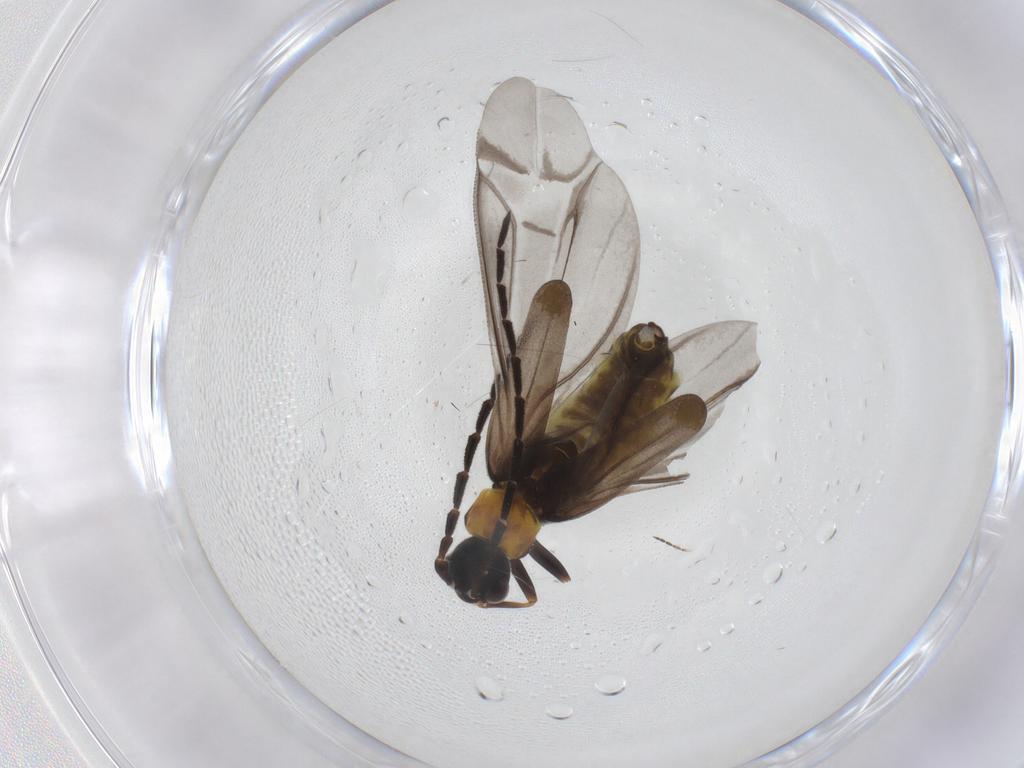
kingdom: Animalia
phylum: Arthropoda
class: Insecta
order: Coleoptera
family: Cantharidae
